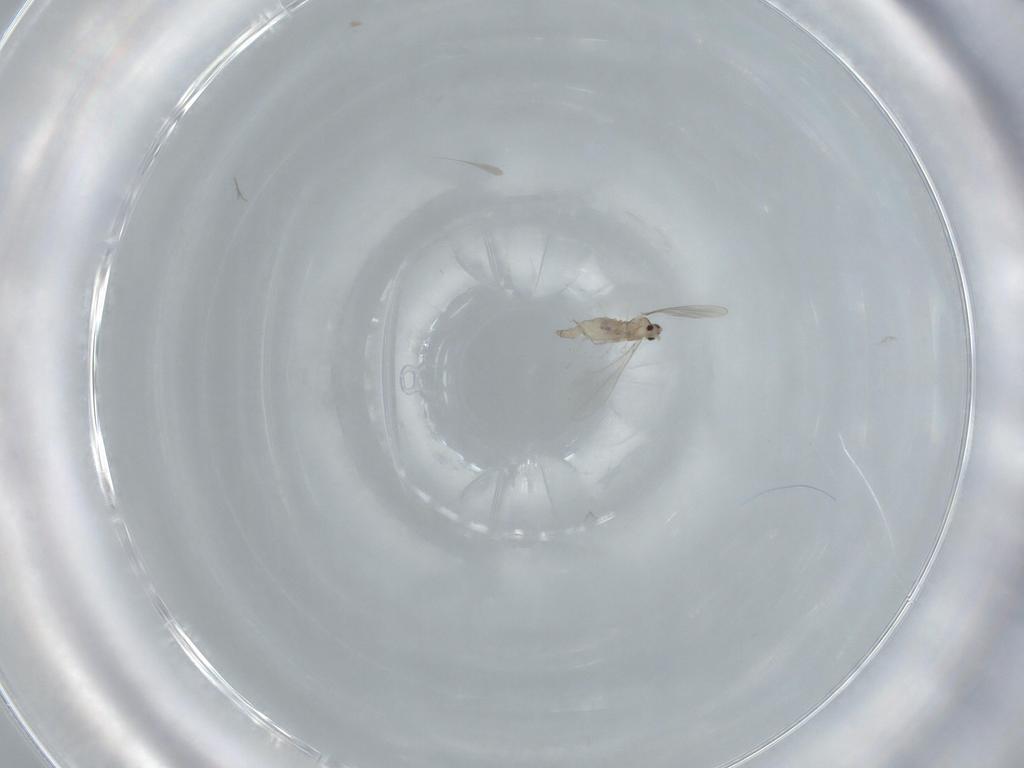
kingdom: Animalia
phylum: Arthropoda
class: Insecta
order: Diptera
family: Cecidomyiidae
